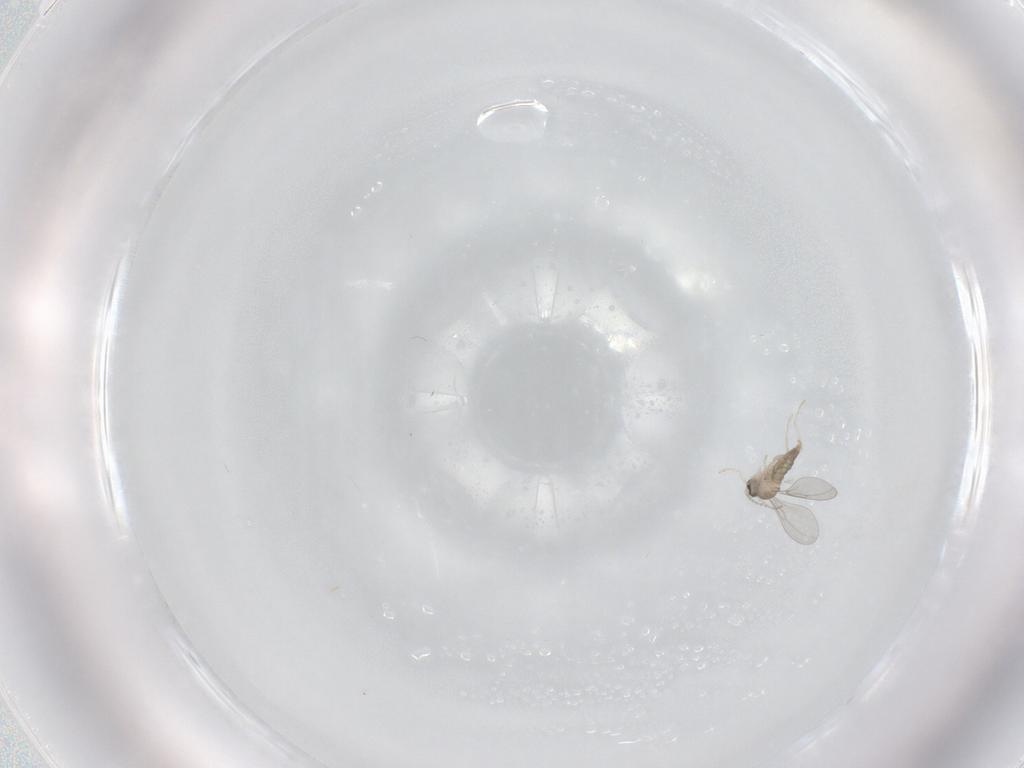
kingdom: Animalia
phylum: Arthropoda
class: Insecta
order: Diptera
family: Cecidomyiidae
